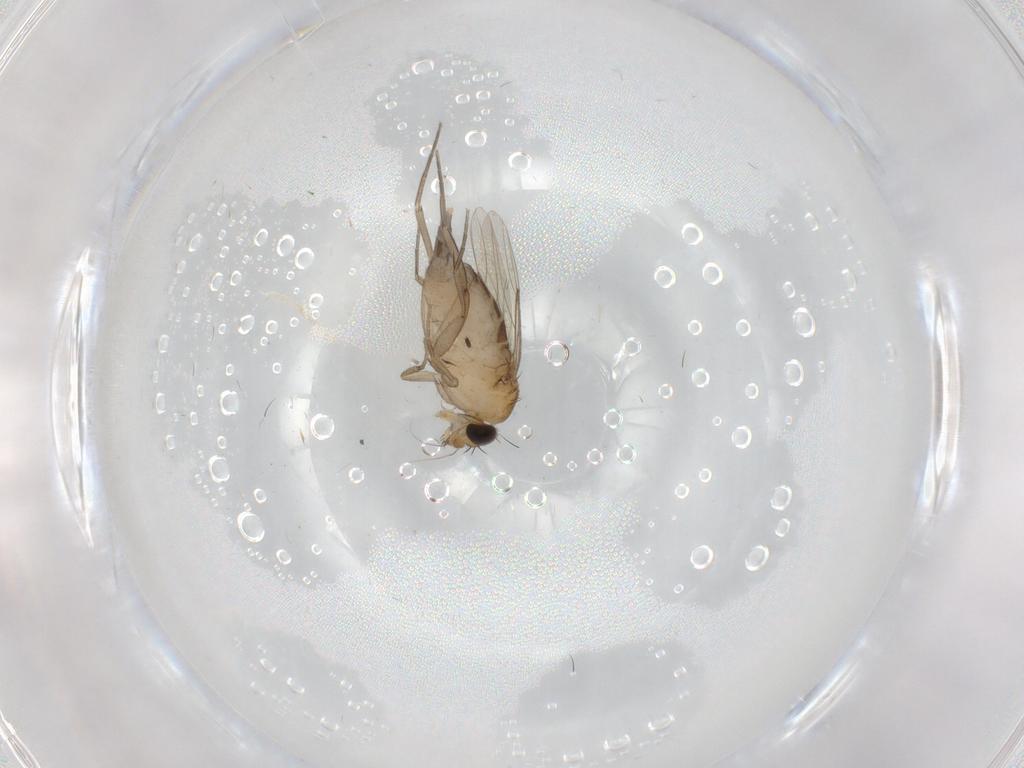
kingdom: Animalia
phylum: Arthropoda
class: Insecta
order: Diptera
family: Phoridae
